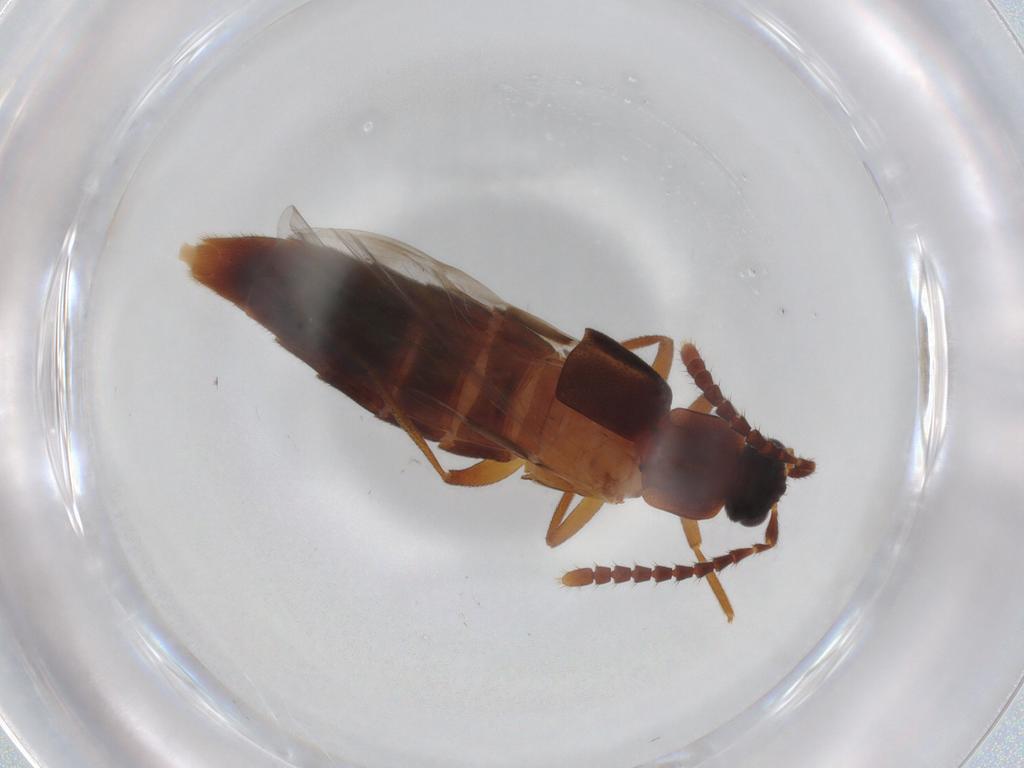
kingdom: Animalia
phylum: Arthropoda
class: Insecta
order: Coleoptera
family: Staphylinidae
